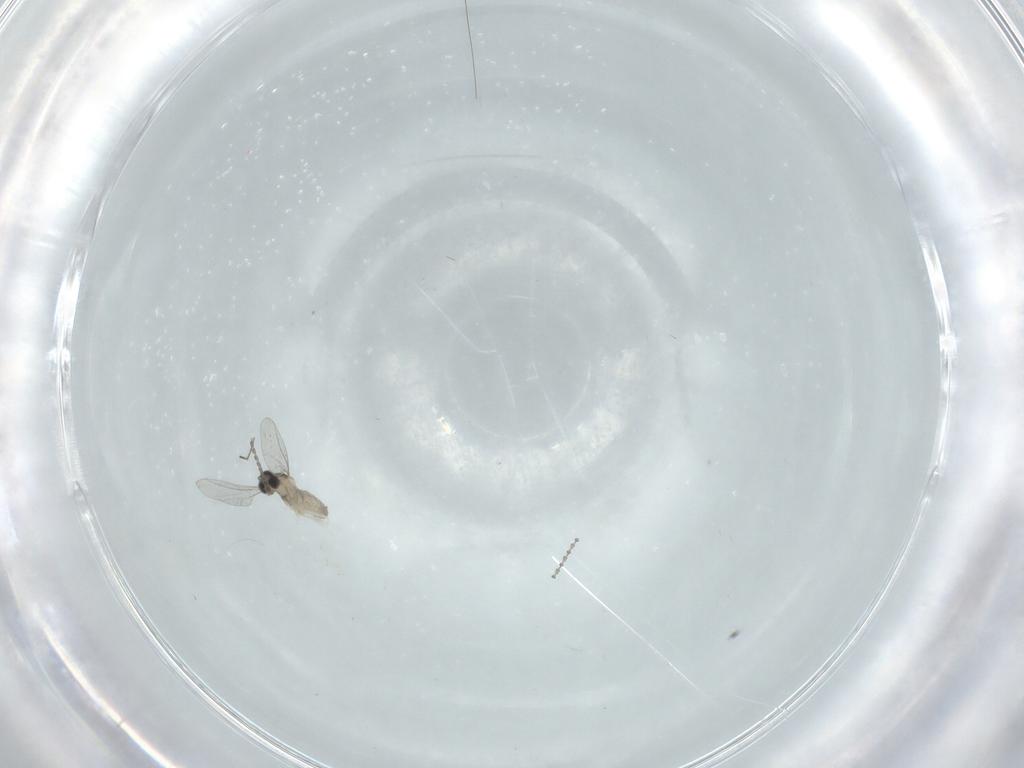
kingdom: Animalia
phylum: Arthropoda
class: Insecta
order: Diptera
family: Cecidomyiidae
